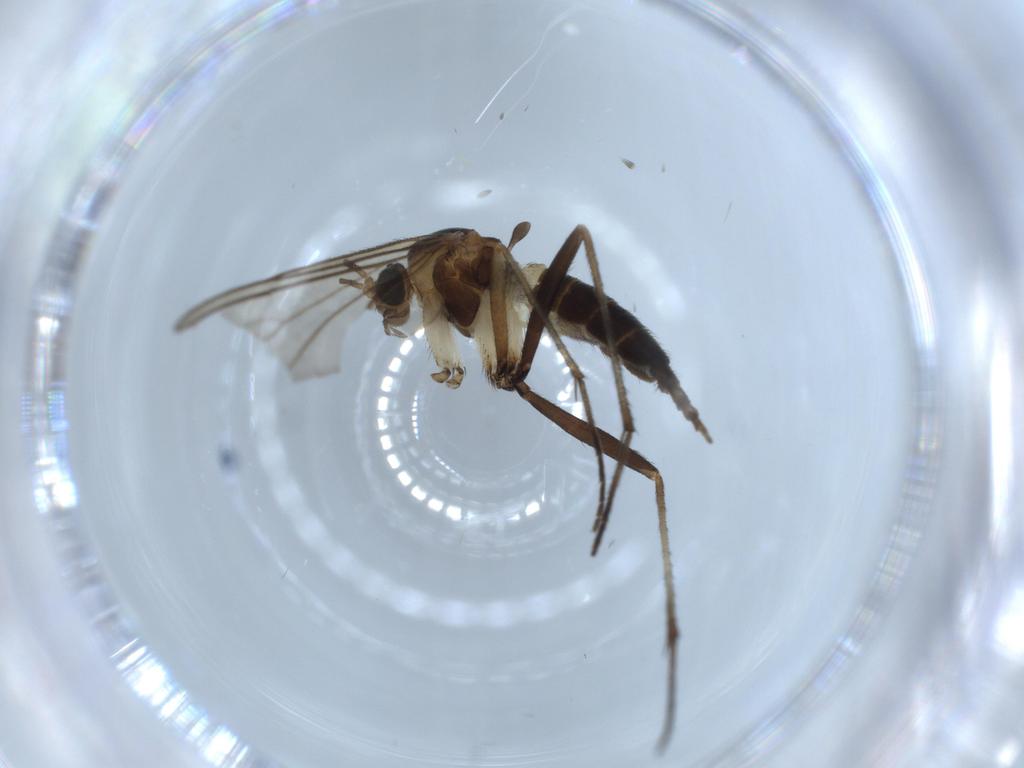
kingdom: Animalia
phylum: Arthropoda
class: Insecta
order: Diptera
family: Sciaridae
